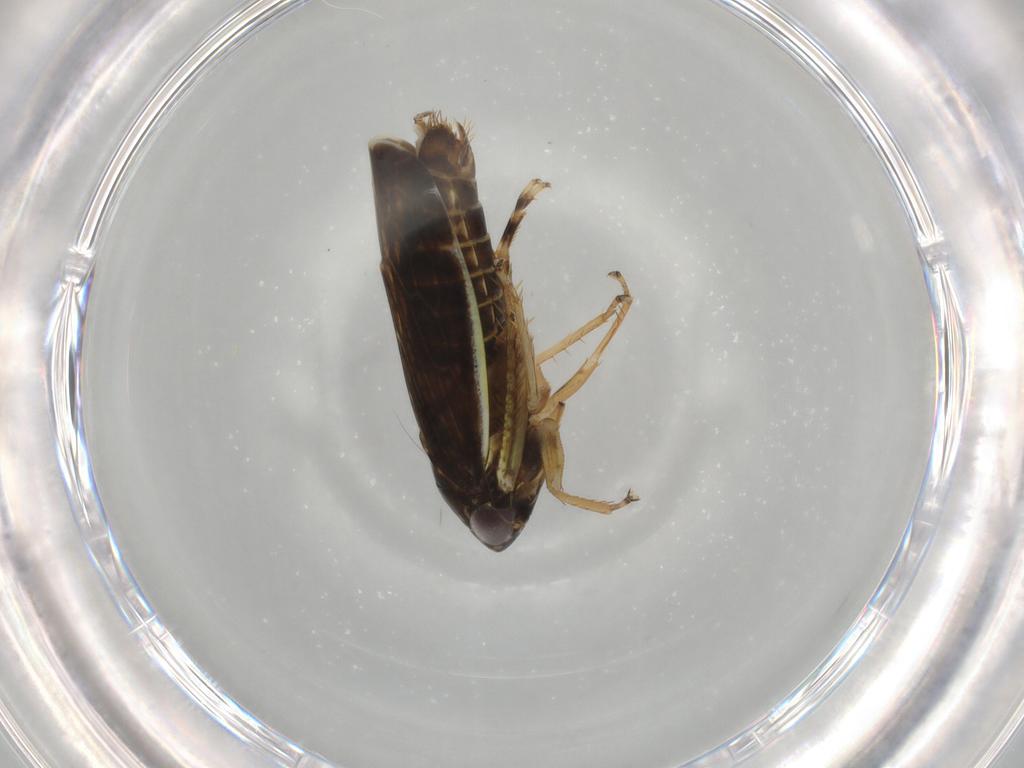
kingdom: Animalia
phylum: Arthropoda
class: Insecta
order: Hemiptera
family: Cicadellidae
